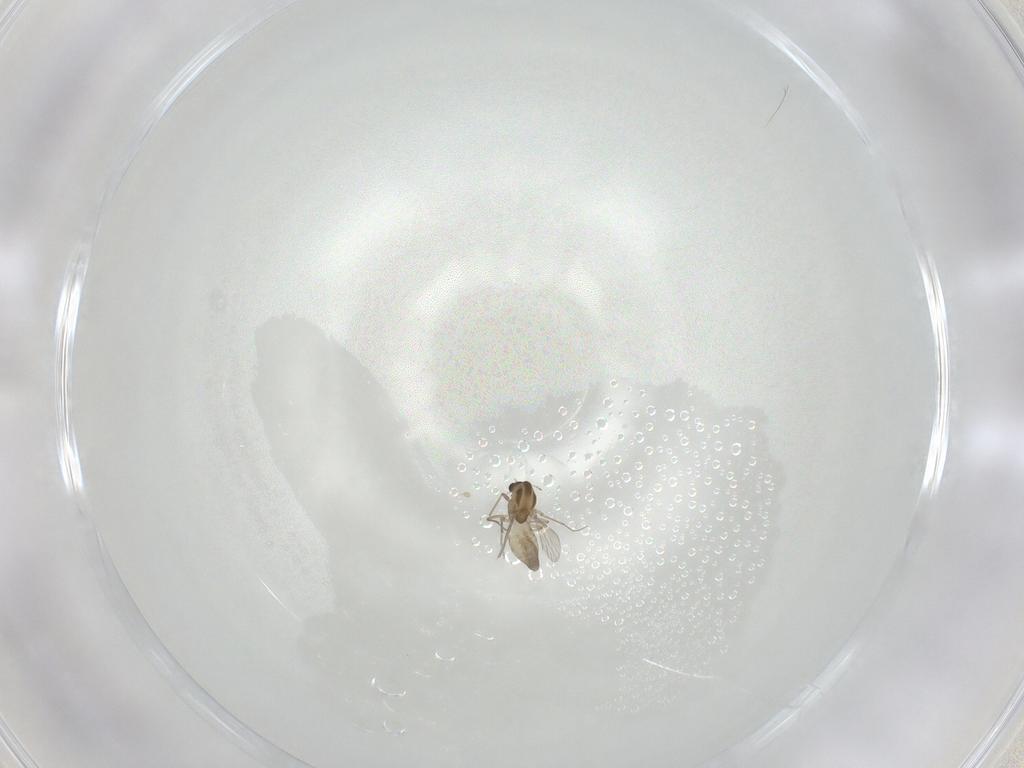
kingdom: Animalia
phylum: Arthropoda
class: Insecta
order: Diptera
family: Chironomidae
